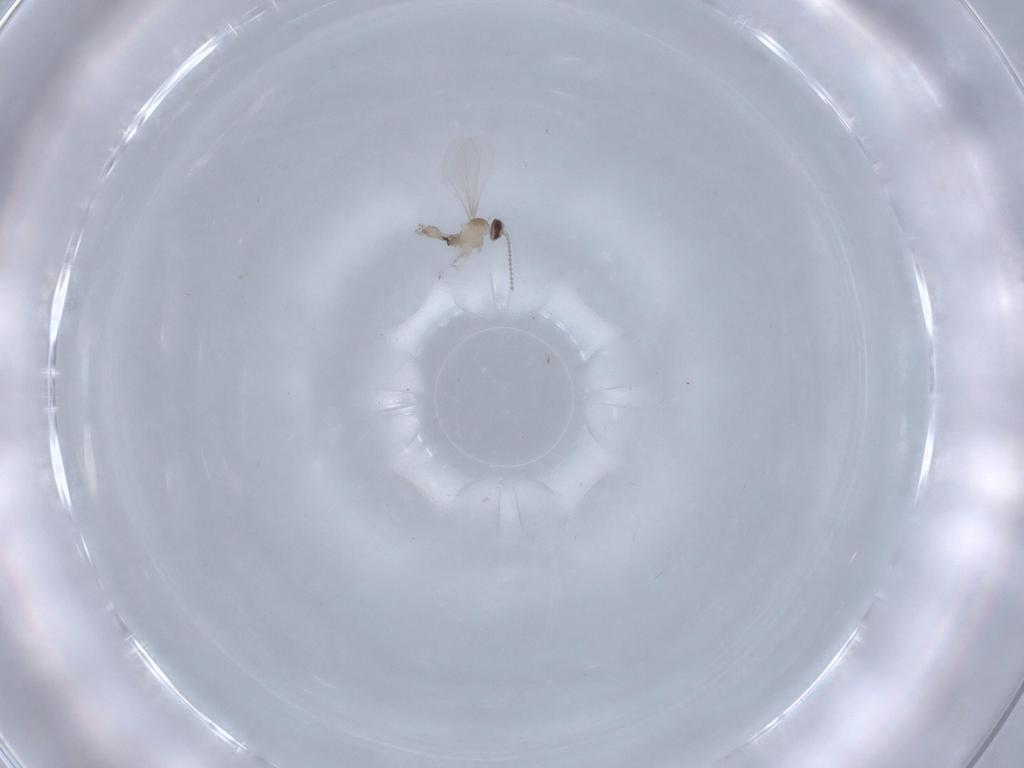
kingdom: Animalia
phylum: Arthropoda
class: Insecta
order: Diptera
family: Cecidomyiidae
